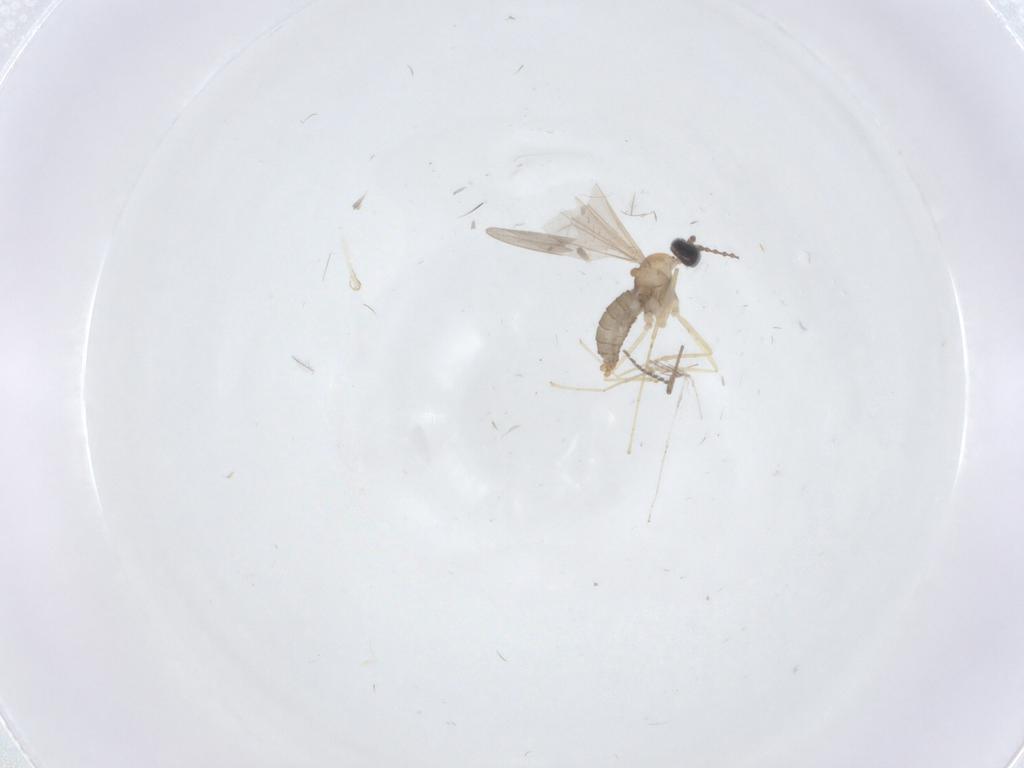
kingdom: Animalia
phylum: Arthropoda
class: Insecta
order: Diptera
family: Cecidomyiidae
